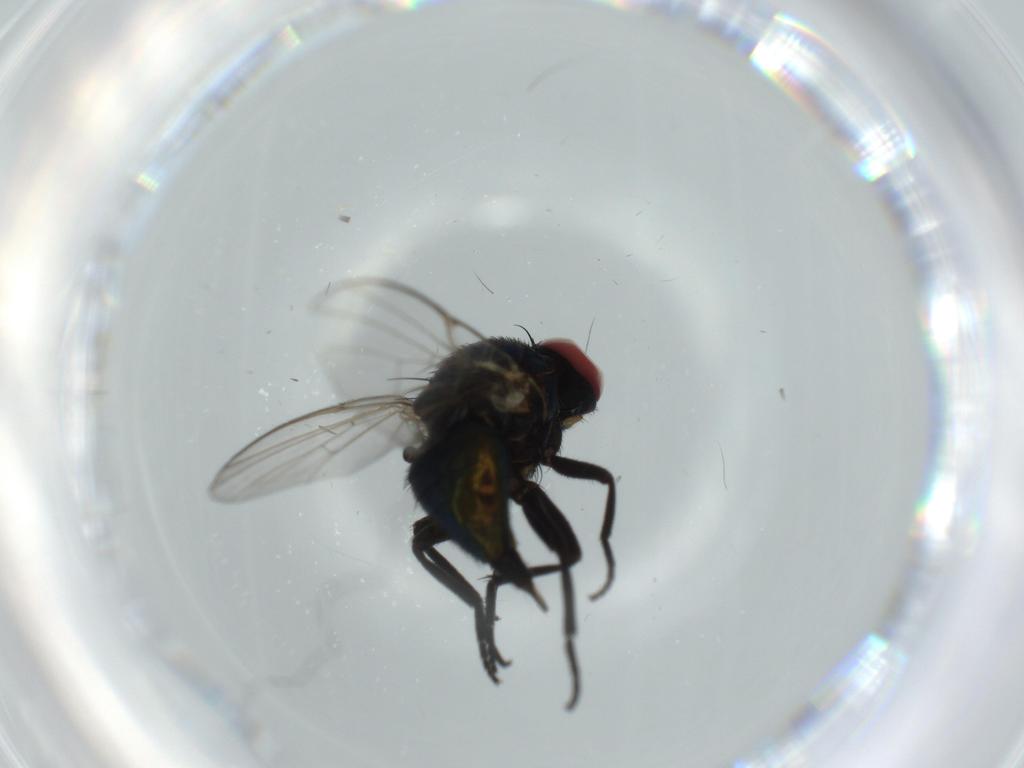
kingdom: Animalia
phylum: Arthropoda
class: Insecta
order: Diptera
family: Agromyzidae
